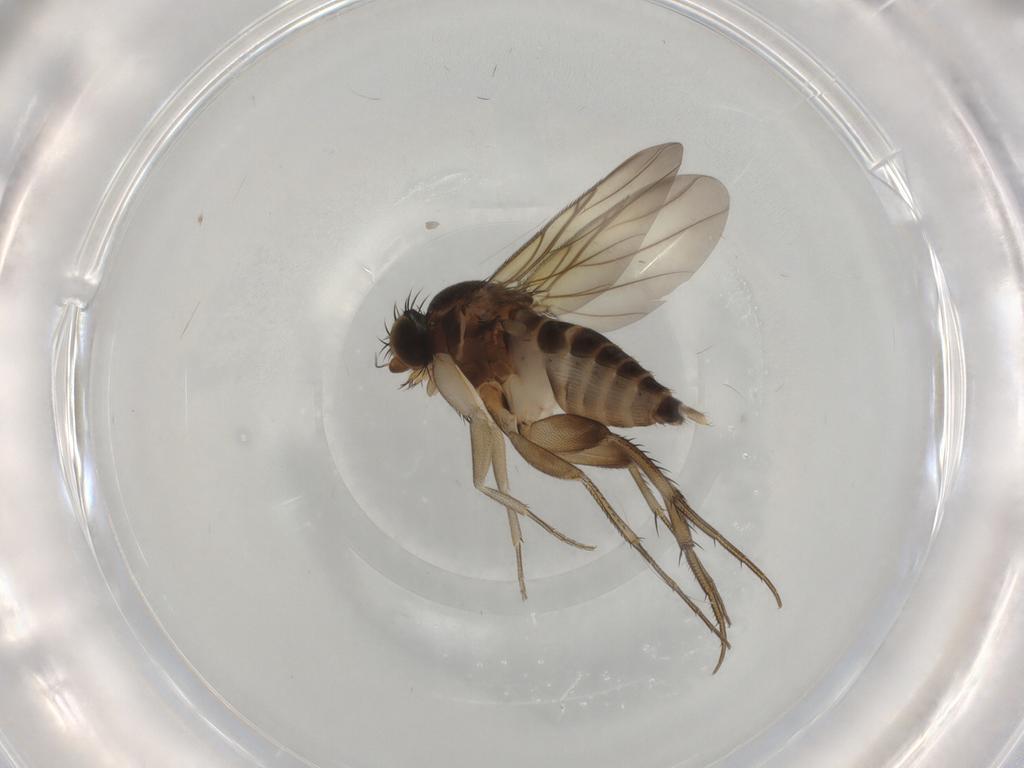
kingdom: Animalia
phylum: Arthropoda
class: Insecta
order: Diptera
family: Phoridae
